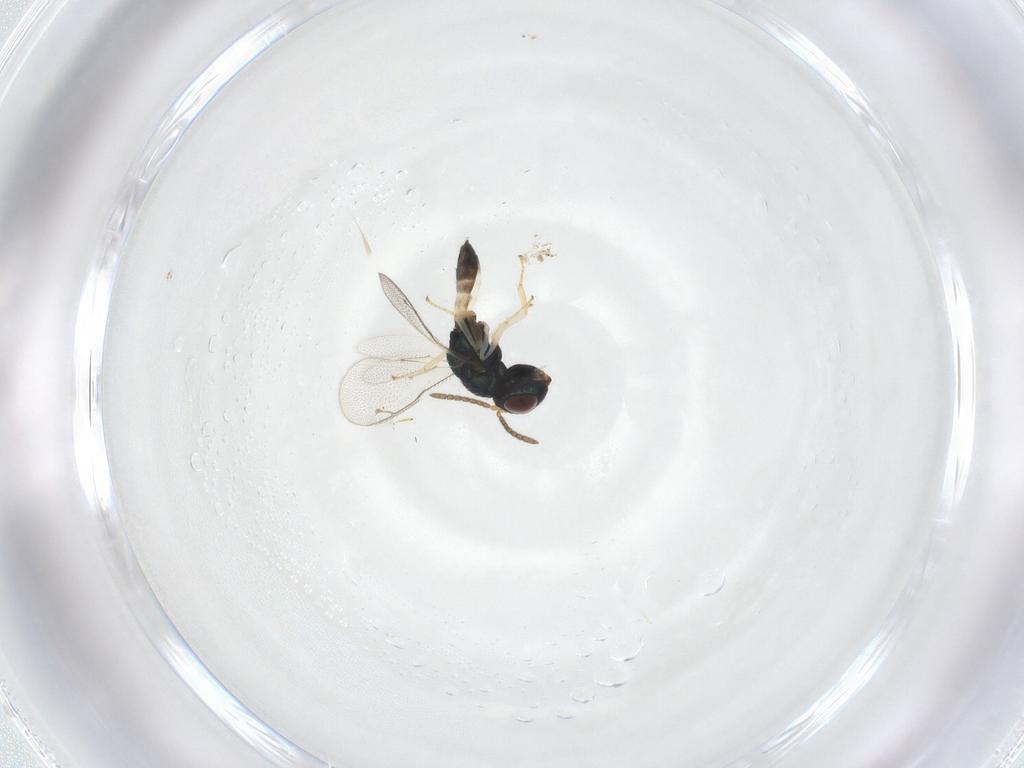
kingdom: Animalia
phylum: Arthropoda
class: Insecta
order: Hymenoptera
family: Pteromalidae
